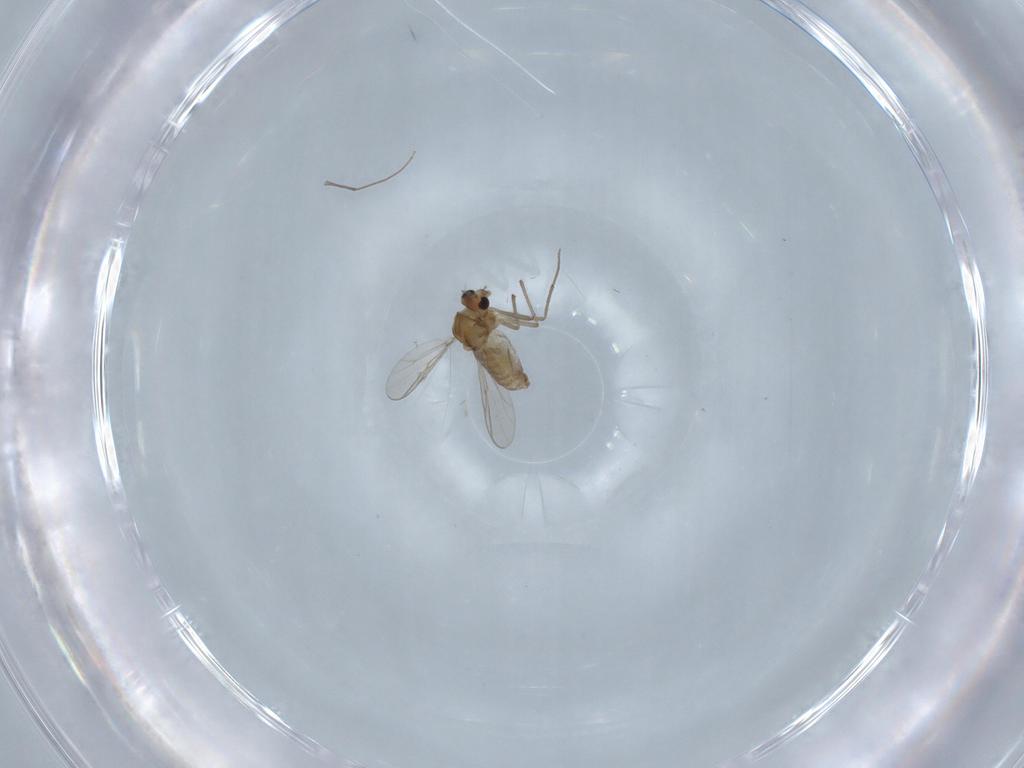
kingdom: Animalia
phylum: Arthropoda
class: Insecta
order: Diptera
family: Chironomidae
